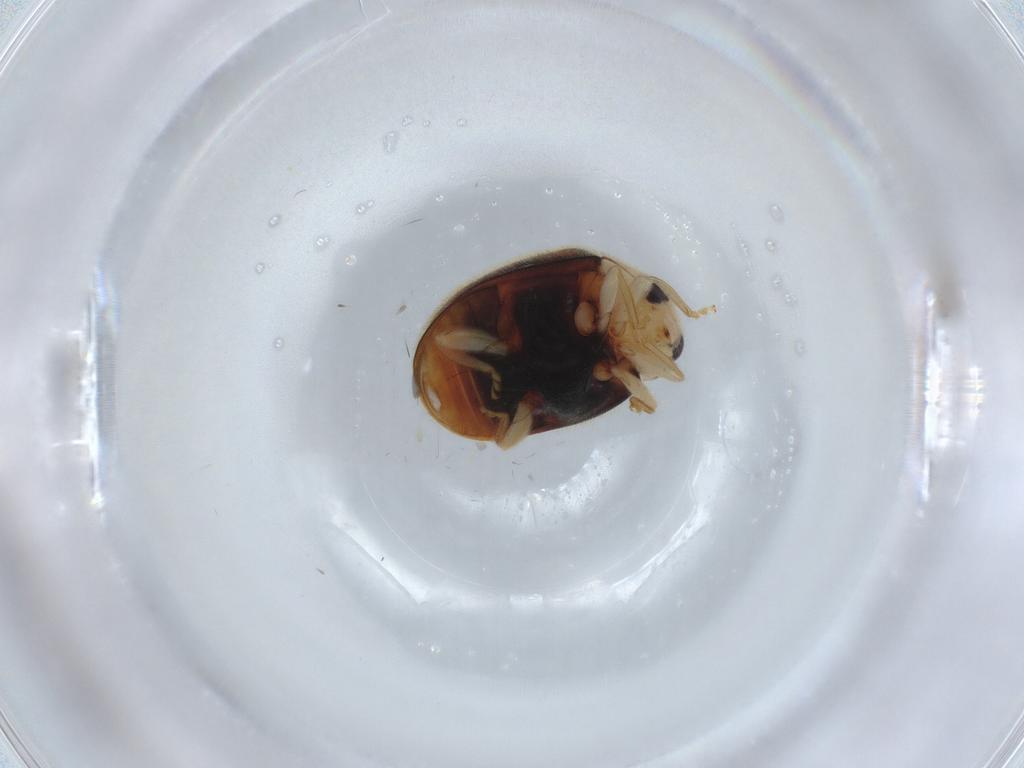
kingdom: Animalia
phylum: Arthropoda
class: Insecta
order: Coleoptera
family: Coccinellidae
